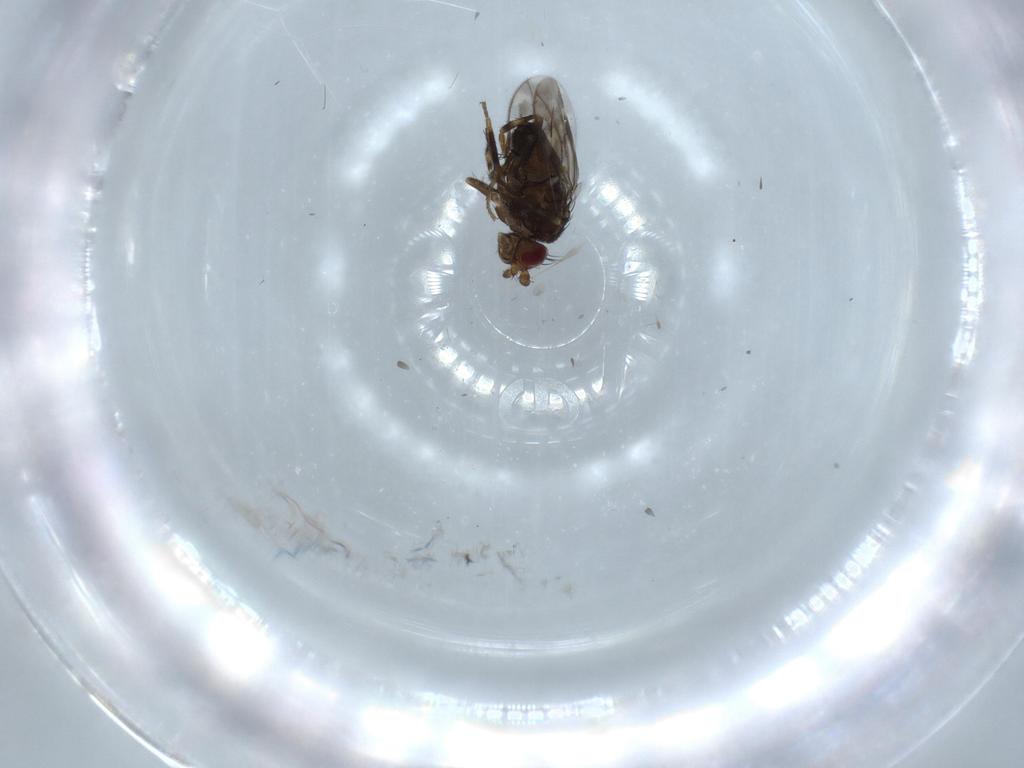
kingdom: Animalia
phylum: Arthropoda
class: Insecta
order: Diptera
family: Sphaeroceridae
